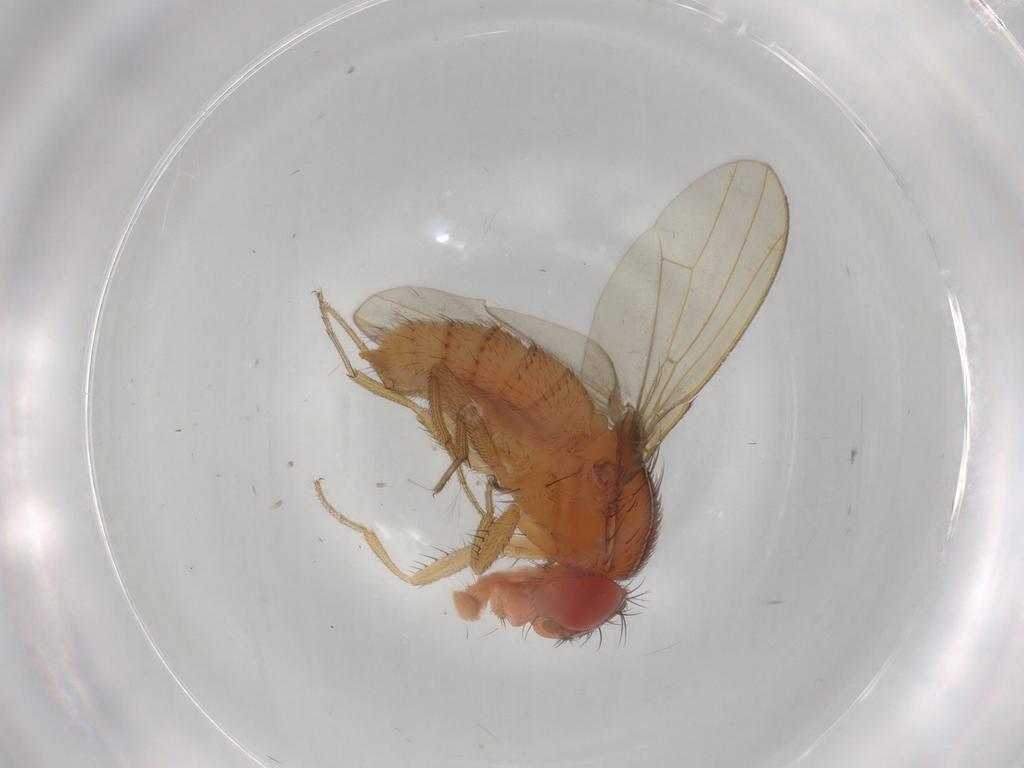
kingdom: Animalia
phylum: Arthropoda
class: Insecta
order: Diptera
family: Drosophilidae
